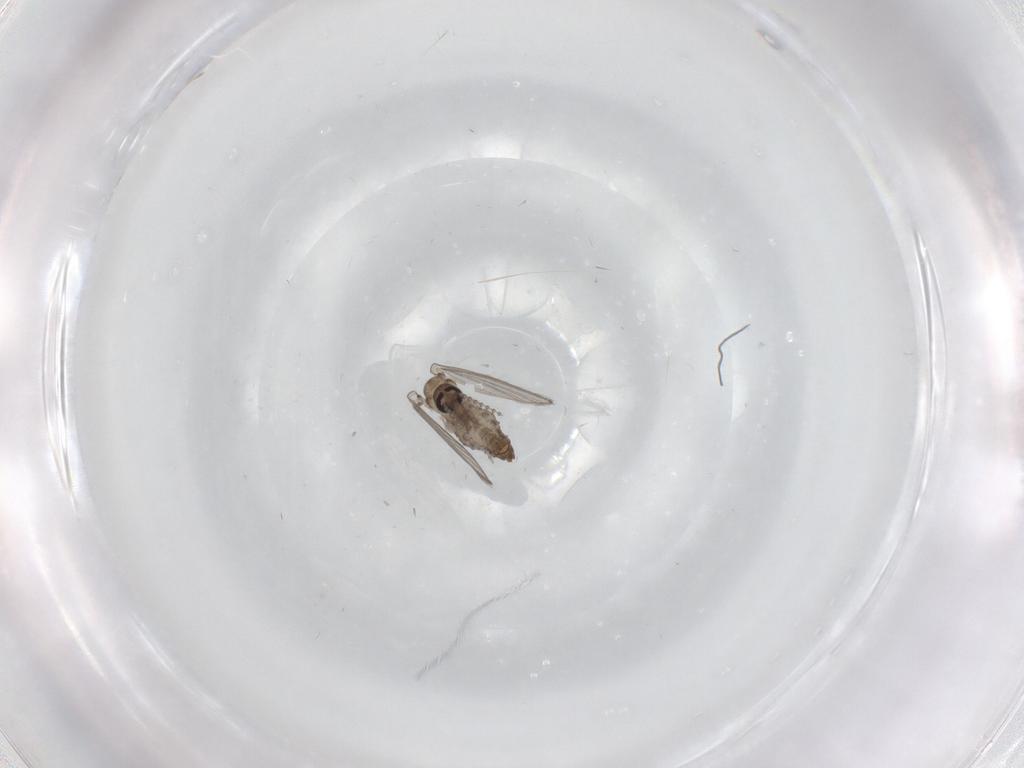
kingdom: Animalia
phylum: Arthropoda
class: Insecta
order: Diptera
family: Psychodidae
